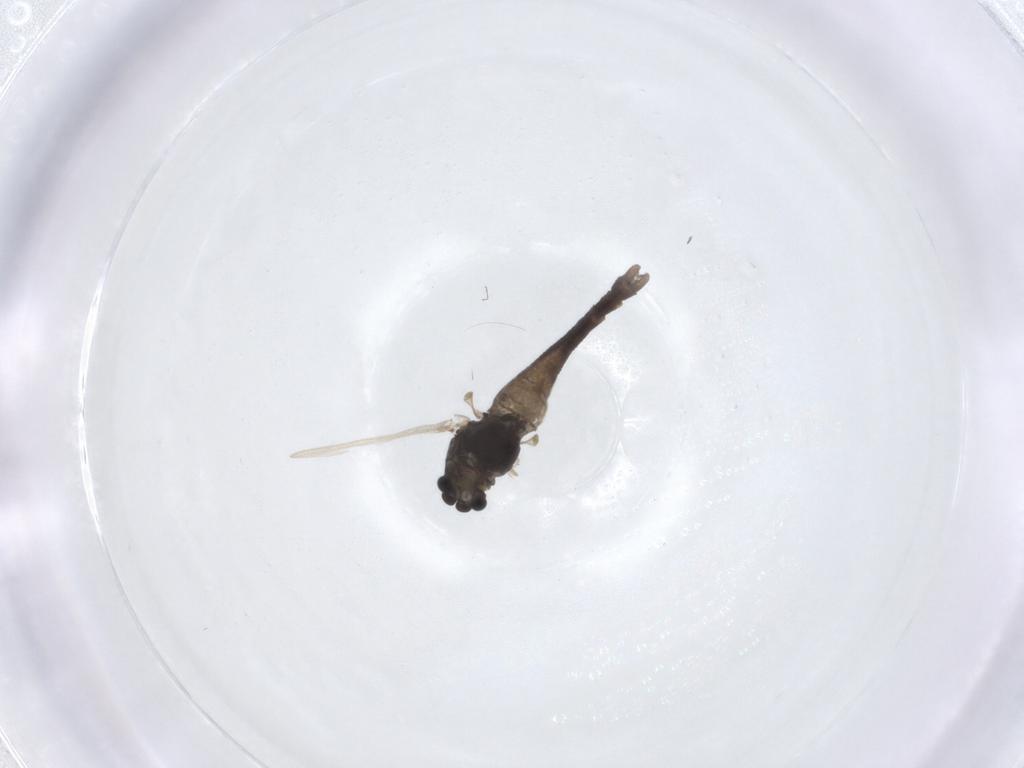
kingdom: Animalia
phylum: Arthropoda
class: Insecta
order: Diptera
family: Chironomidae
